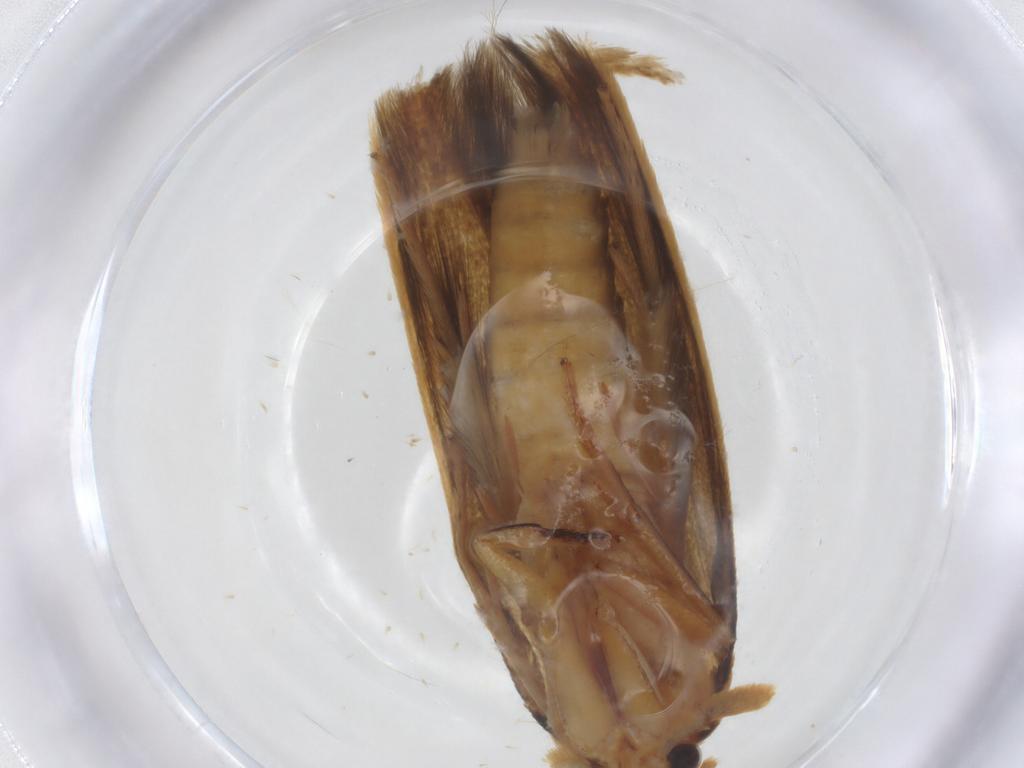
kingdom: Animalia
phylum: Arthropoda
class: Insecta
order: Lepidoptera
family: Tineidae
